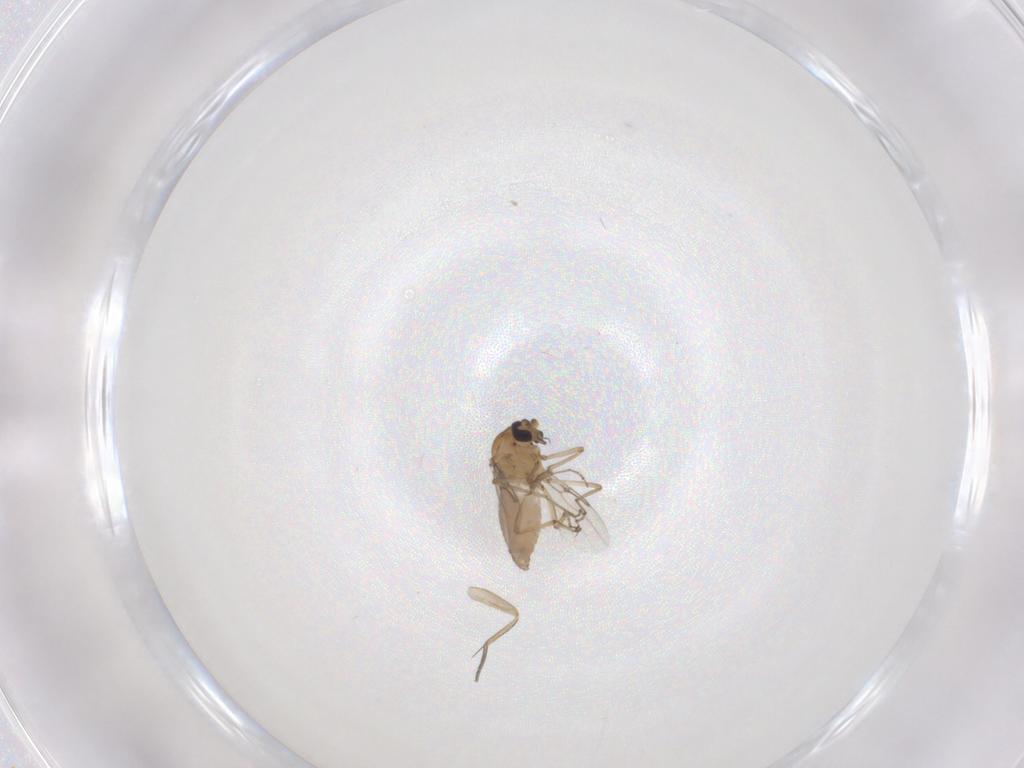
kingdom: Animalia
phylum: Arthropoda
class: Insecta
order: Diptera
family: Phoridae
